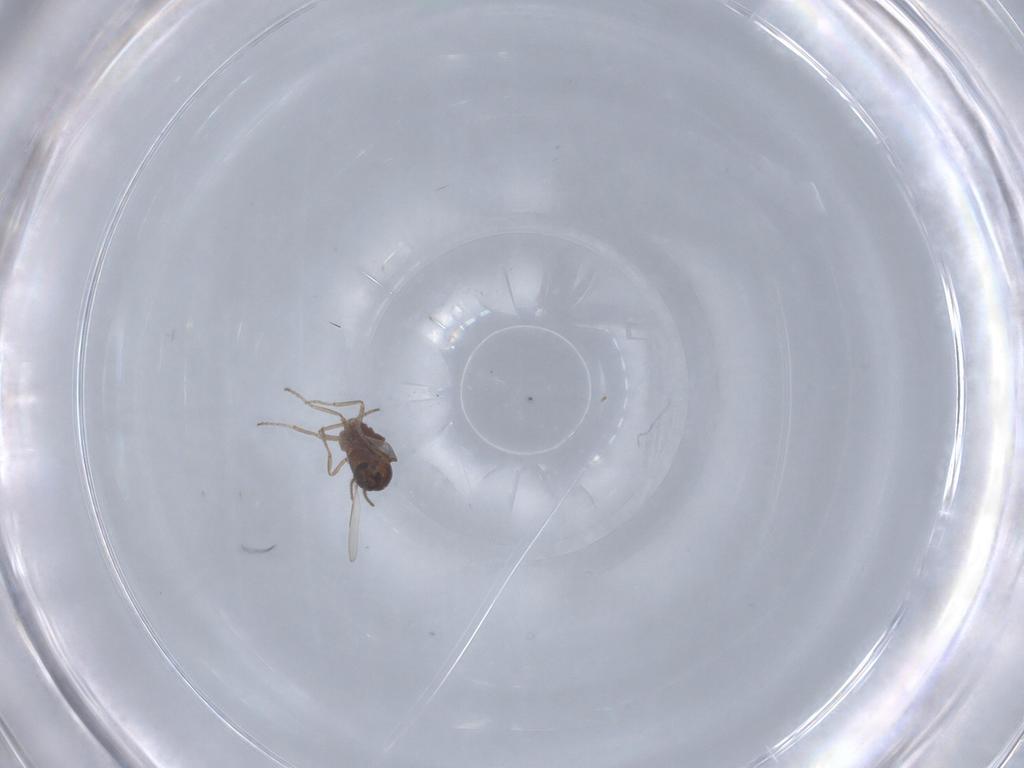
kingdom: Animalia
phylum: Arthropoda
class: Insecta
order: Diptera
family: Ceratopogonidae
